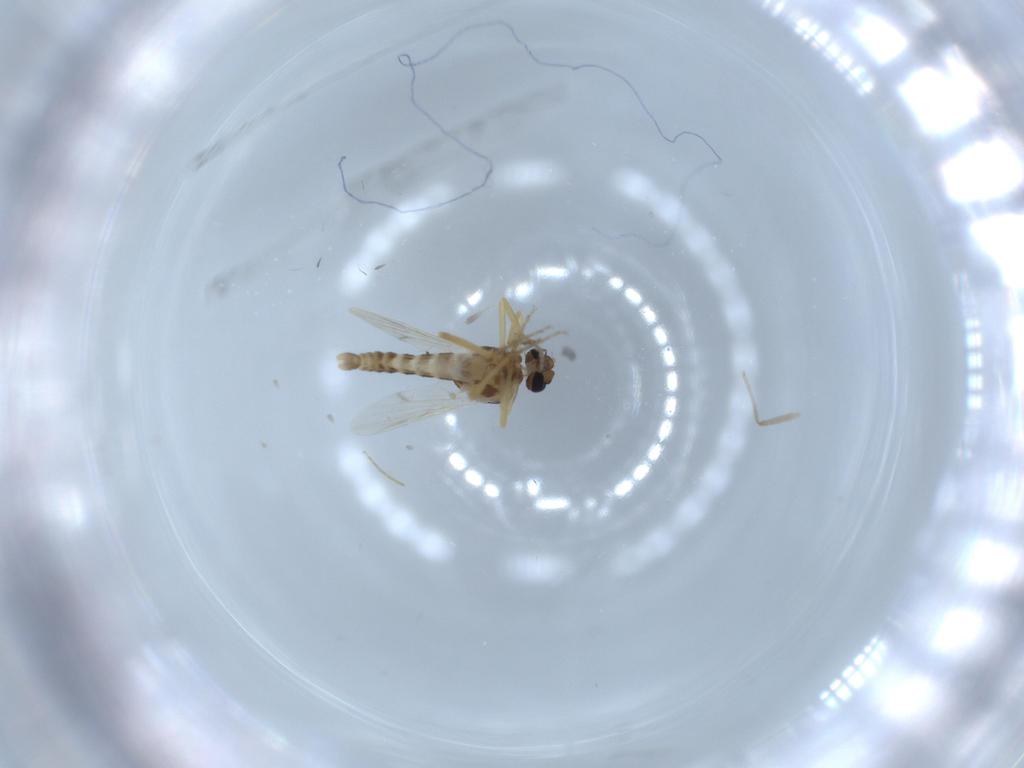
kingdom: Animalia
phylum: Arthropoda
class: Insecta
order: Diptera
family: Ceratopogonidae
